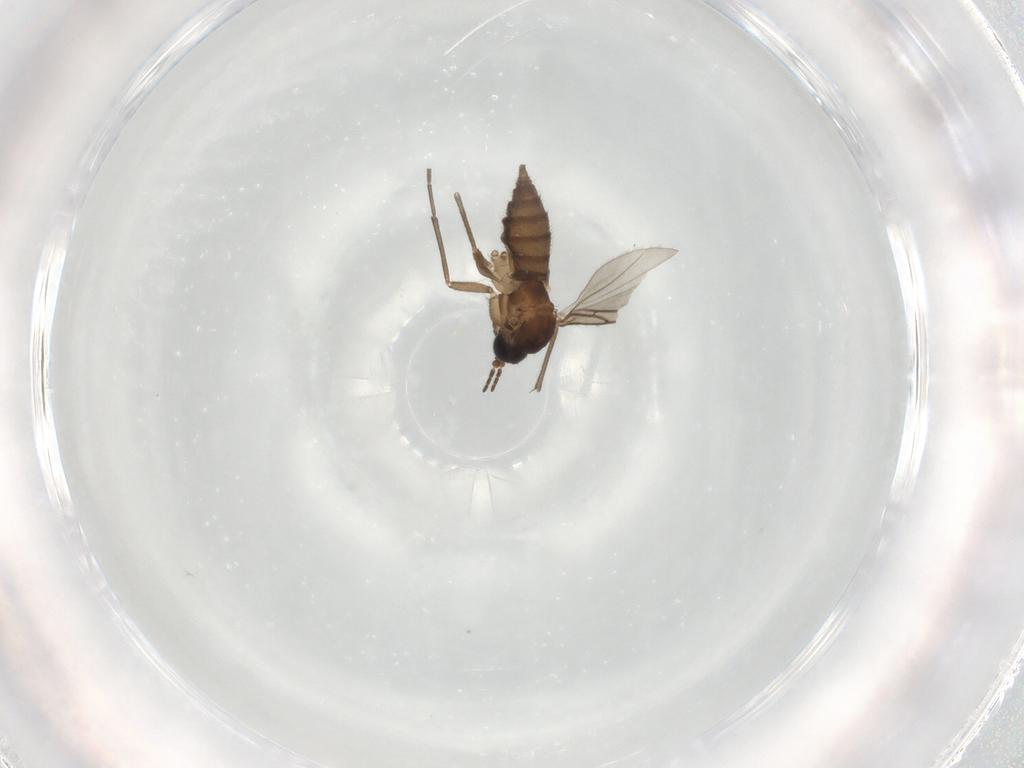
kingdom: Animalia
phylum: Arthropoda
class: Insecta
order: Diptera
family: Sciaridae
